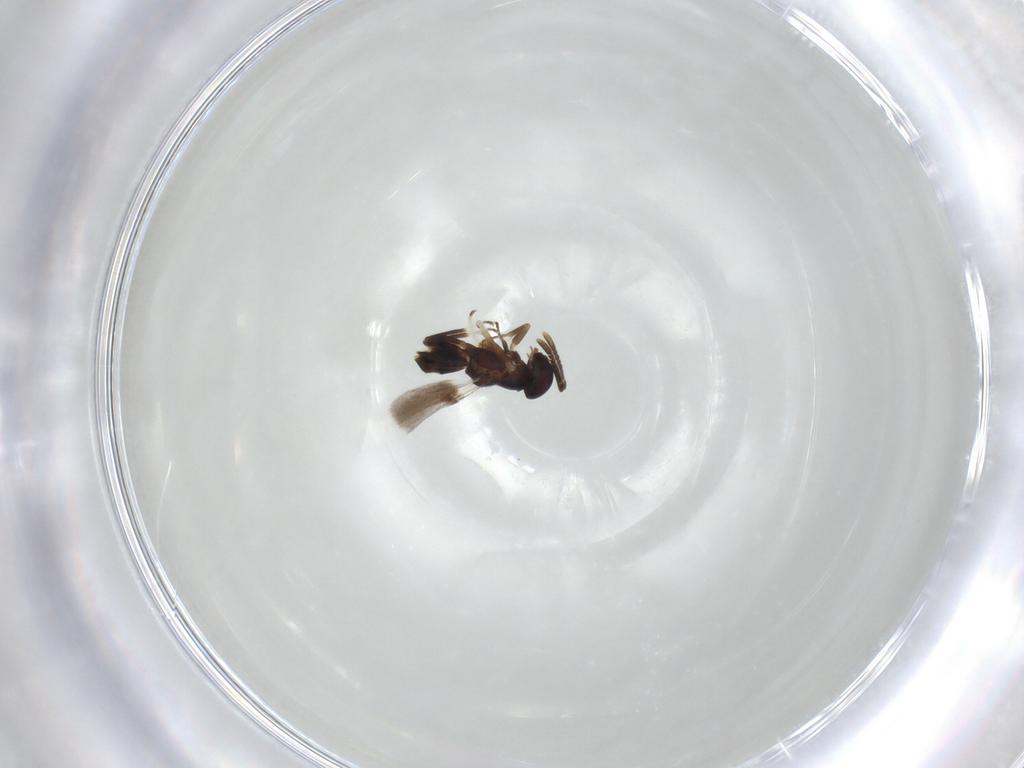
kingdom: Animalia
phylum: Arthropoda
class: Insecta
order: Hymenoptera
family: Encyrtidae
